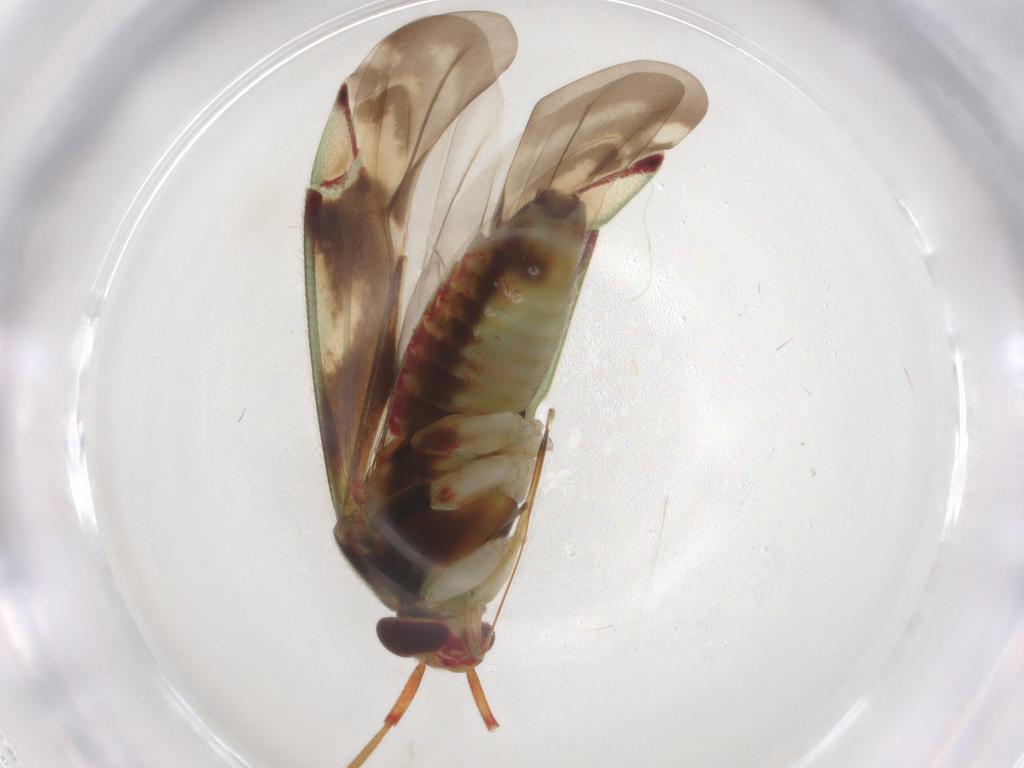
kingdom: Animalia
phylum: Arthropoda
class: Insecta
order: Hemiptera
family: Miridae
